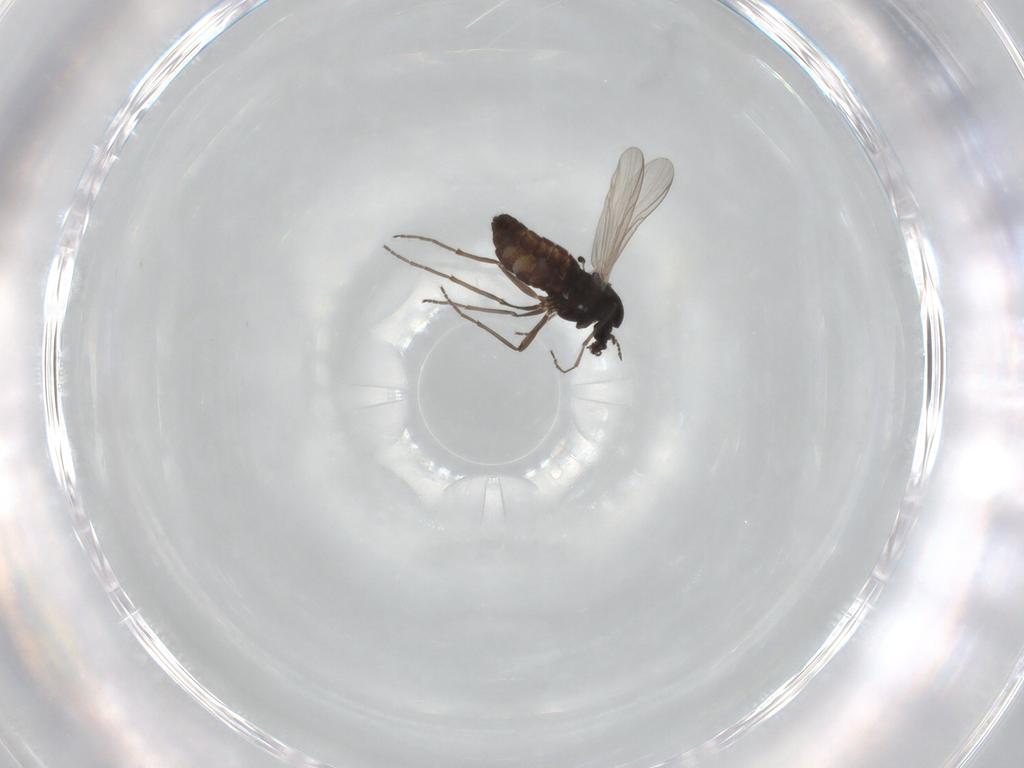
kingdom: Animalia
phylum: Arthropoda
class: Insecta
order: Diptera
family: Chironomidae
